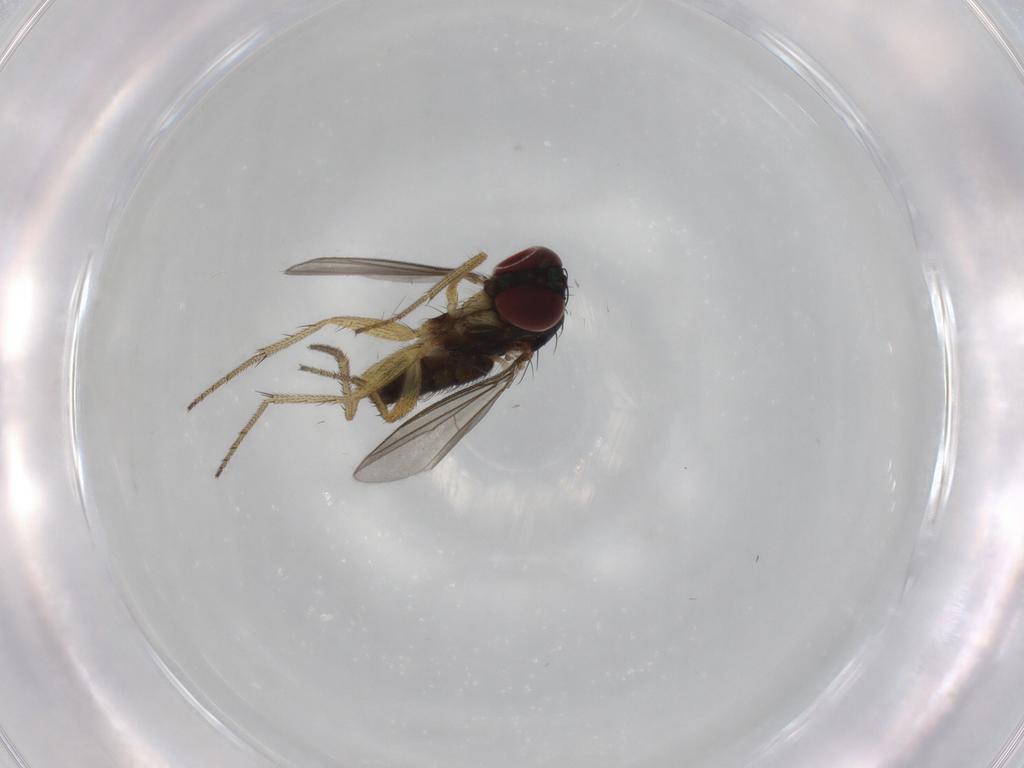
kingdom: Animalia
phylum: Arthropoda
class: Insecta
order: Diptera
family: Dolichopodidae
